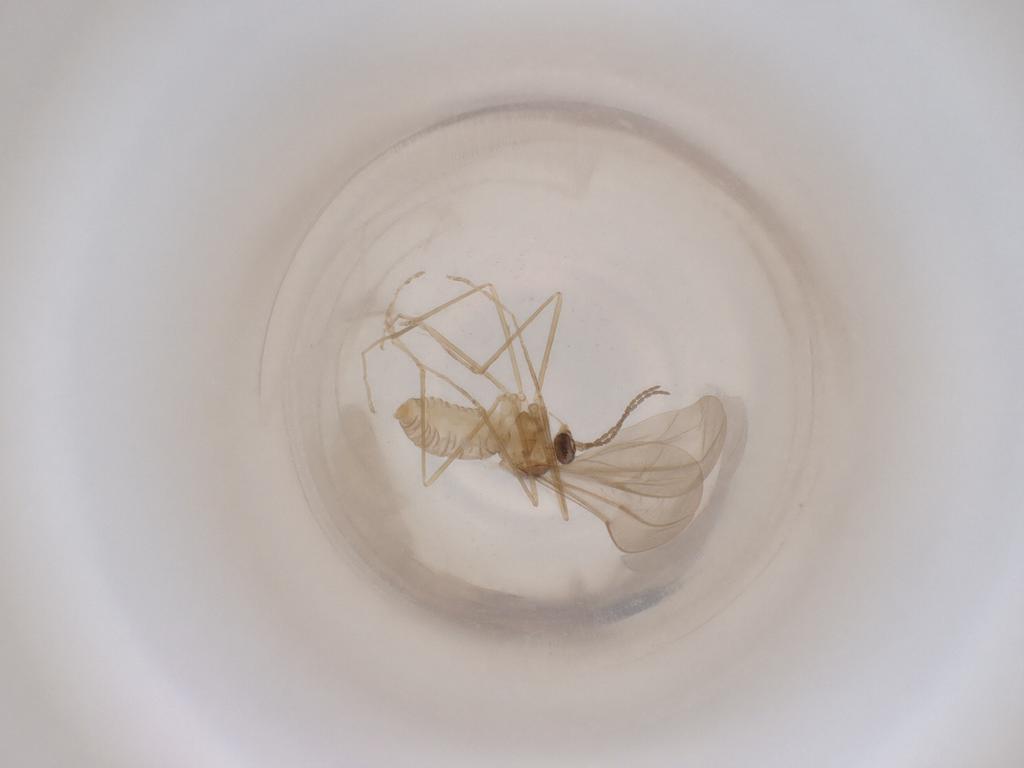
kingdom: Animalia
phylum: Arthropoda
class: Insecta
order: Diptera
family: Cecidomyiidae
